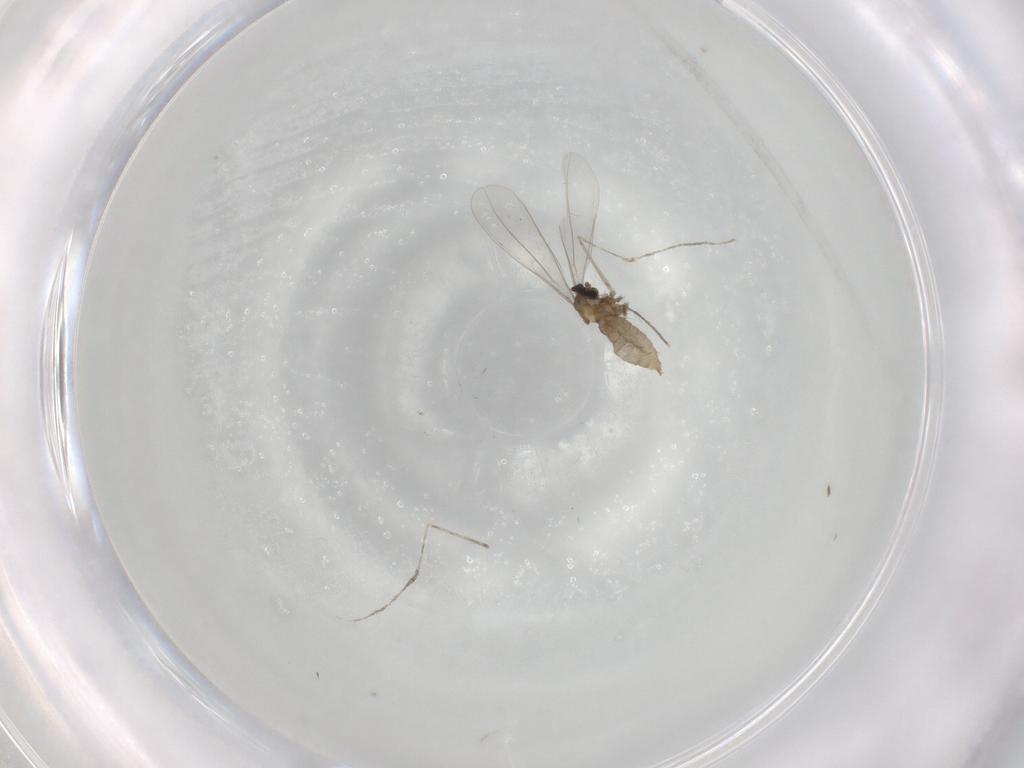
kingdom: Animalia
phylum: Arthropoda
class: Insecta
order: Diptera
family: Cecidomyiidae
